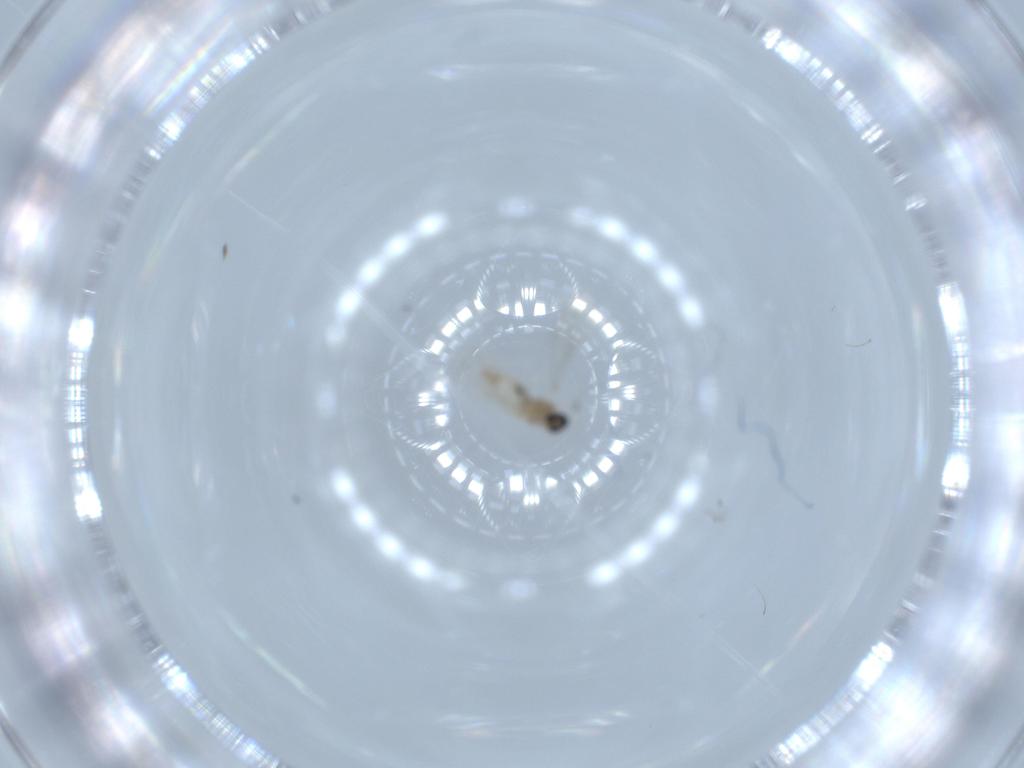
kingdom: Animalia
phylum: Arthropoda
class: Insecta
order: Diptera
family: Cecidomyiidae
